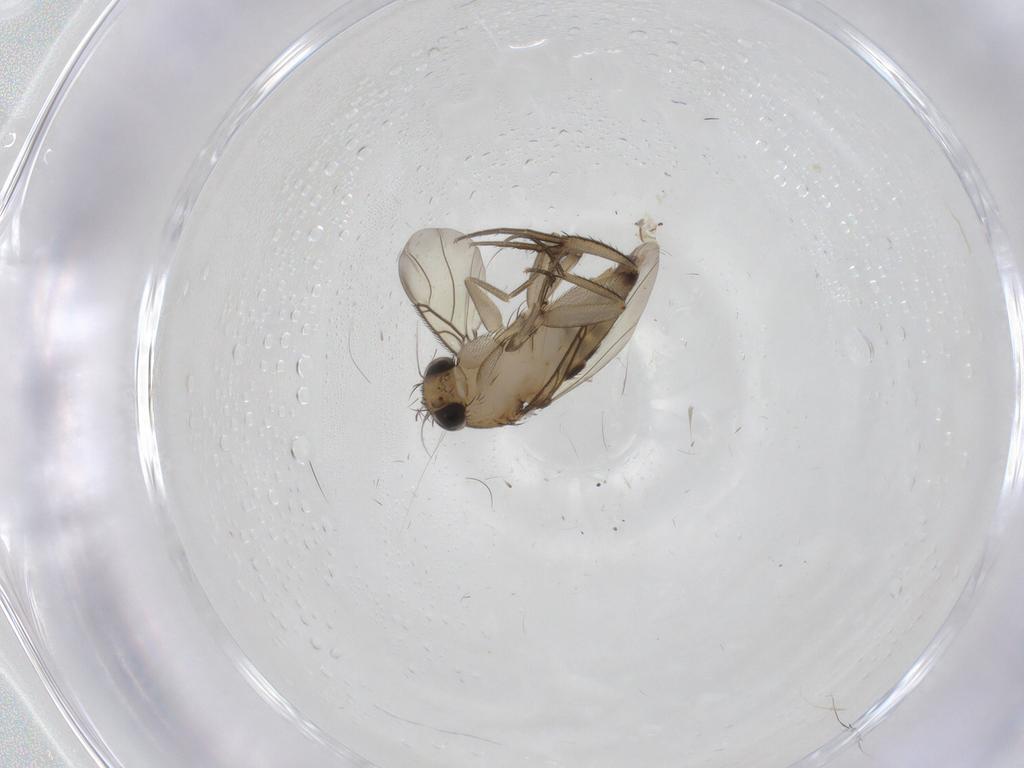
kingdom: Animalia
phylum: Arthropoda
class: Insecta
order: Diptera
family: Phoridae
